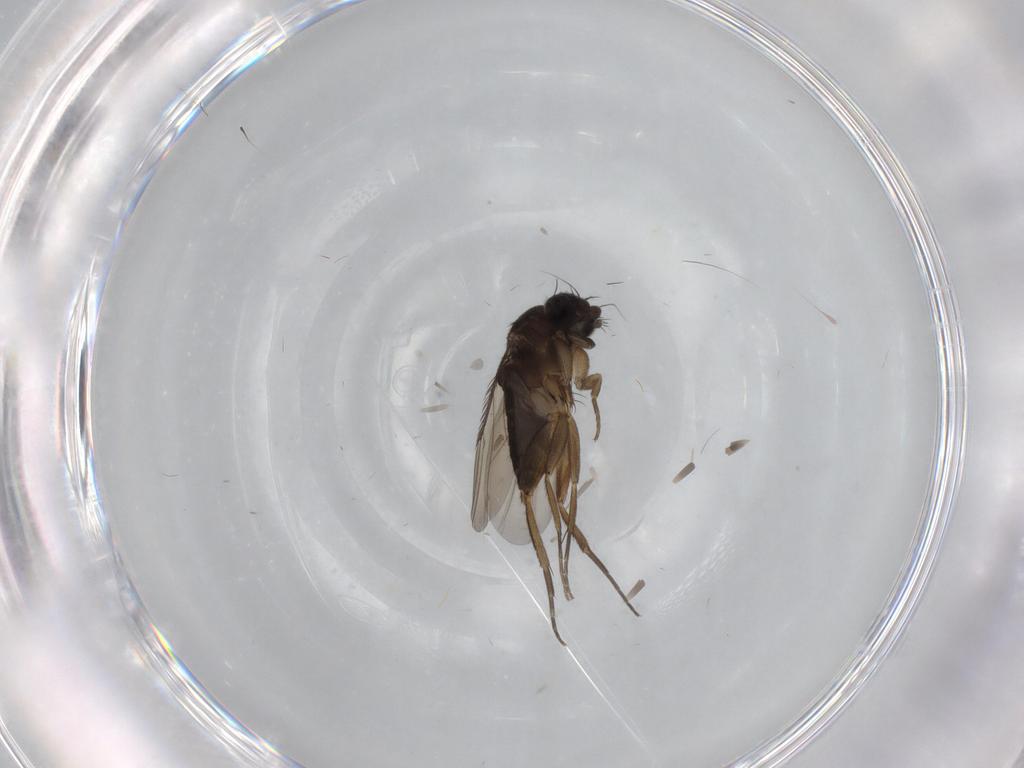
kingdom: Animalia
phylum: Arthropoda
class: Insecta
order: Diptera
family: Phoridae
